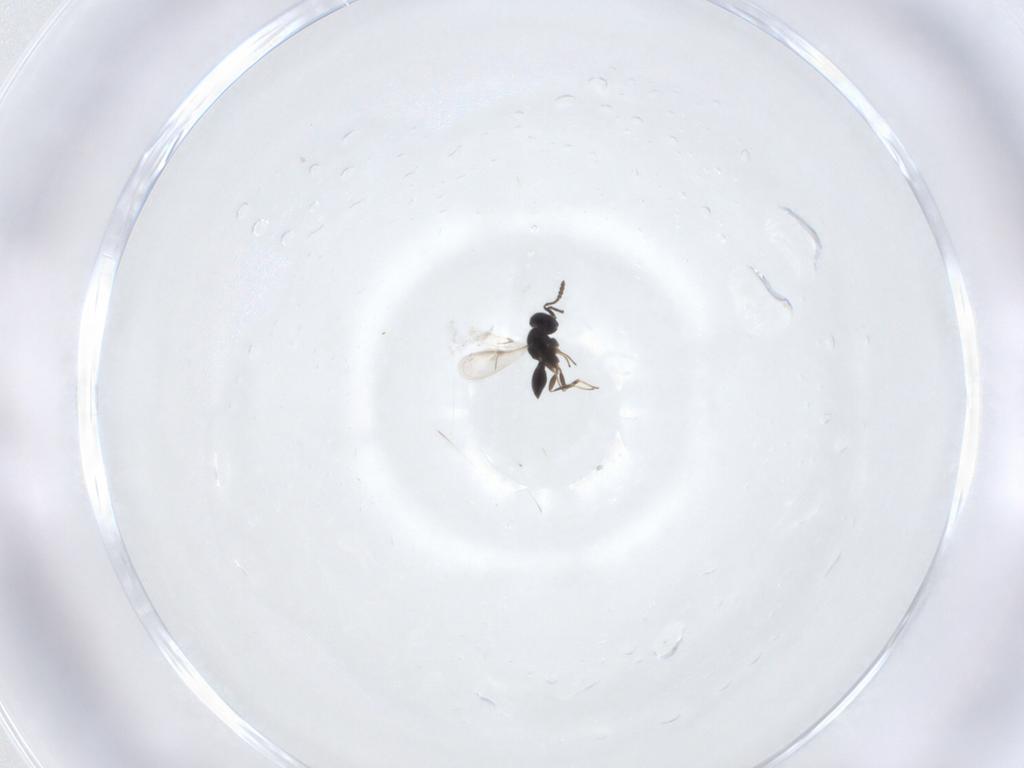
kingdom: Animalia
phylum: Arthropoda
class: Insecta
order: Hymenoptera
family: Scelionidae
